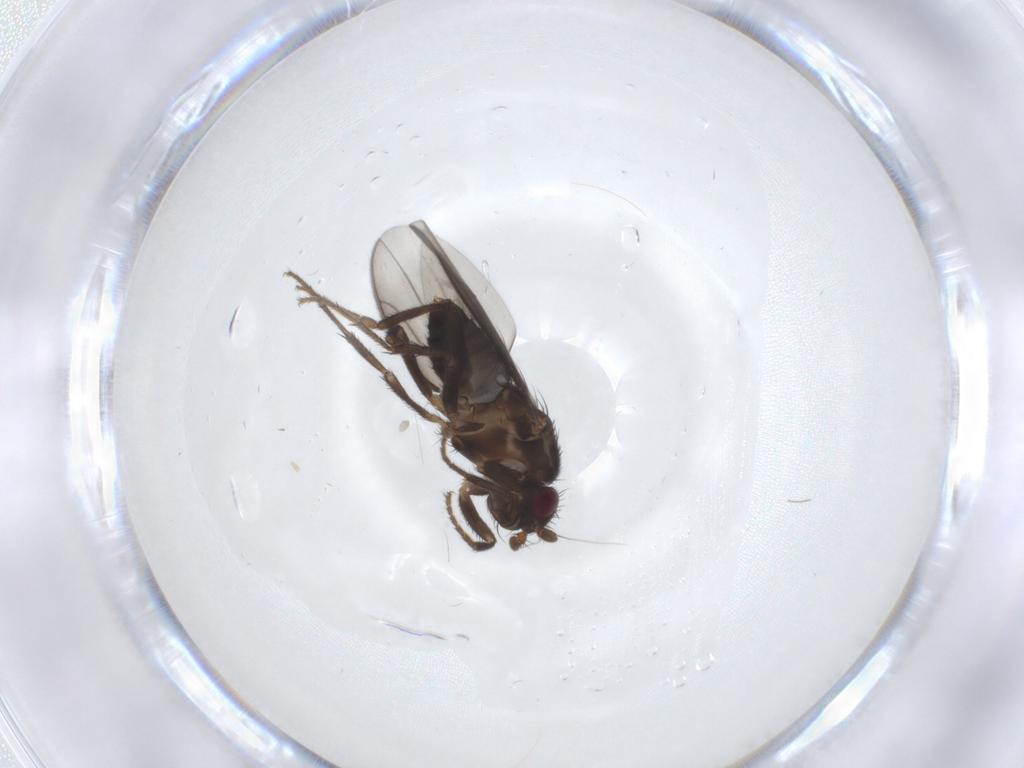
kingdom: Animalia
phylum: Arthropoda
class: Insecta
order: Diptera
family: Sphaeroceridae
